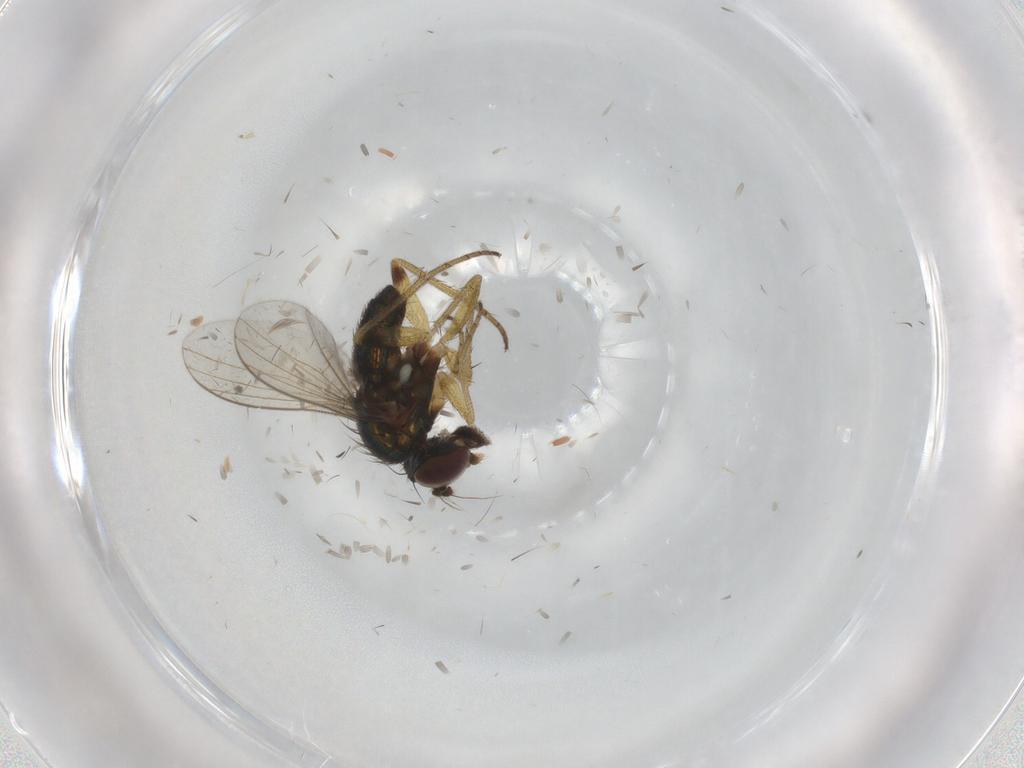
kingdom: Animalia
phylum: Arthropoda
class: Insecta
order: Diptera
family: Dolichopodidae
